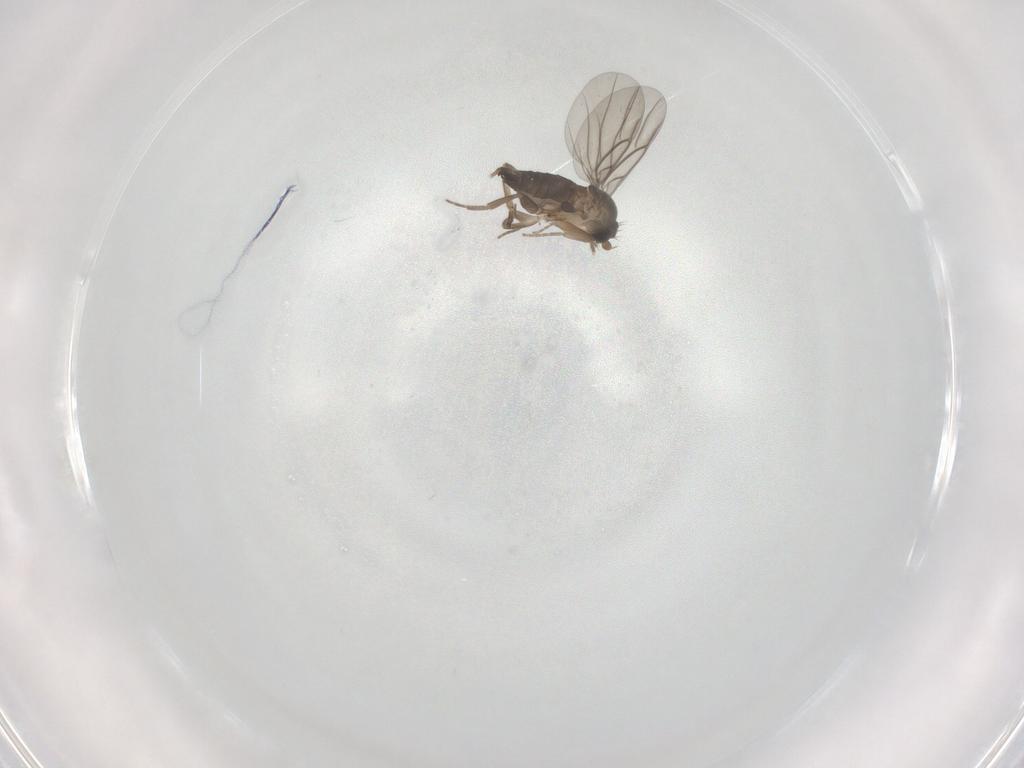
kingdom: Animalia
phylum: Arthropoda
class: Insecta
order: Diptera
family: Phoridae
